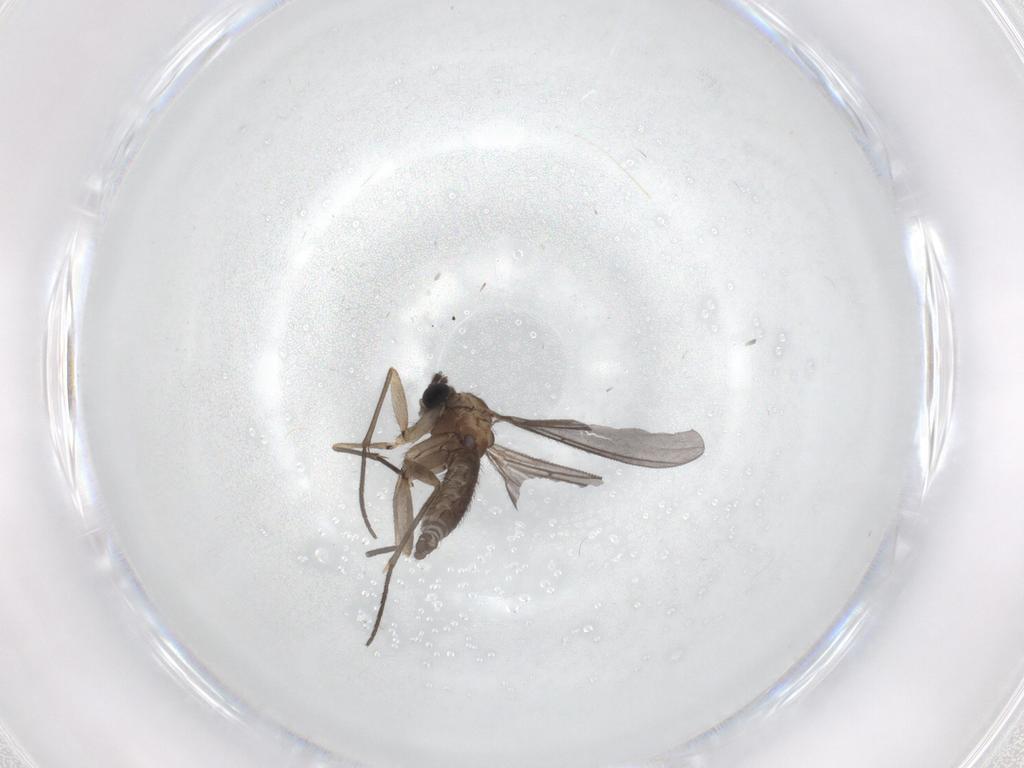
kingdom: Animalia
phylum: Arthropoda
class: Insecta
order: Diptera
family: Sciaridae
